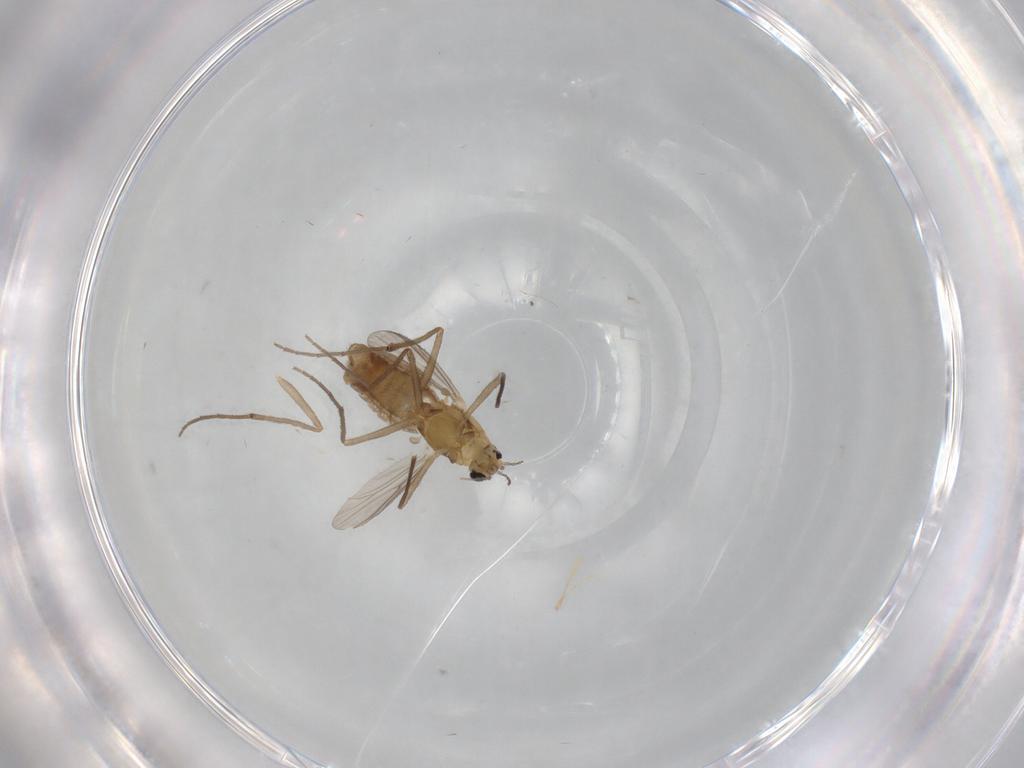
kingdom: Animalia
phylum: Arthropoda
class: Insecta
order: Diptera
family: Chironomidae
